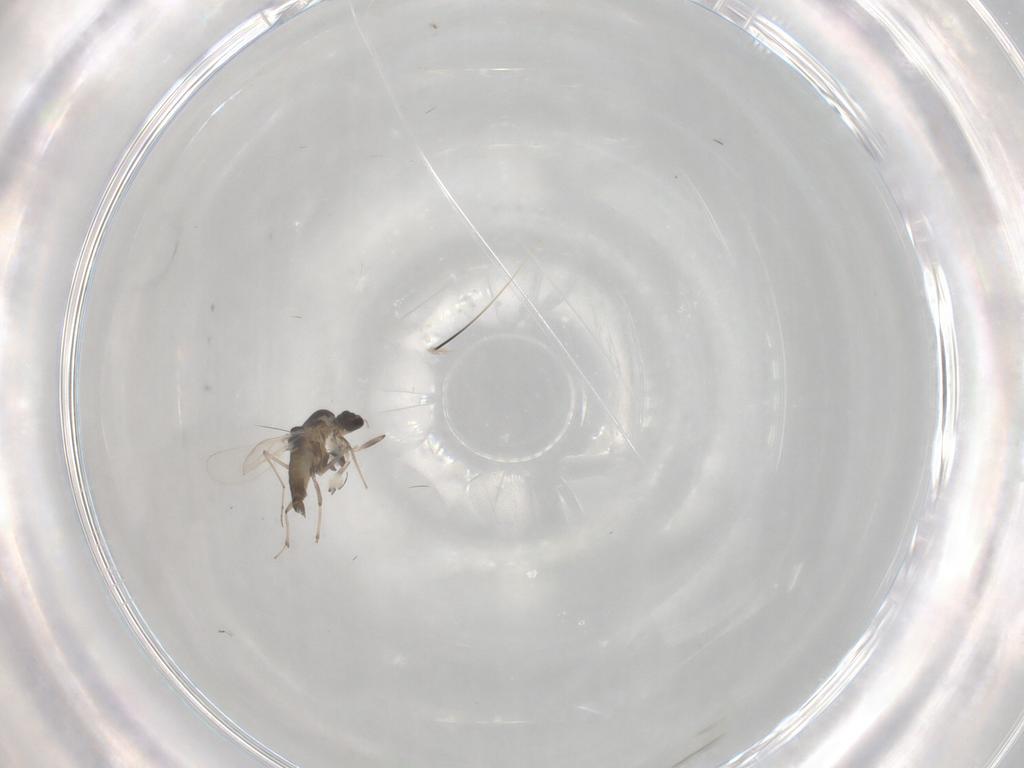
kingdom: Animalia
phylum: Arthropoda
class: Insecta
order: Diptera
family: Chironomidae
